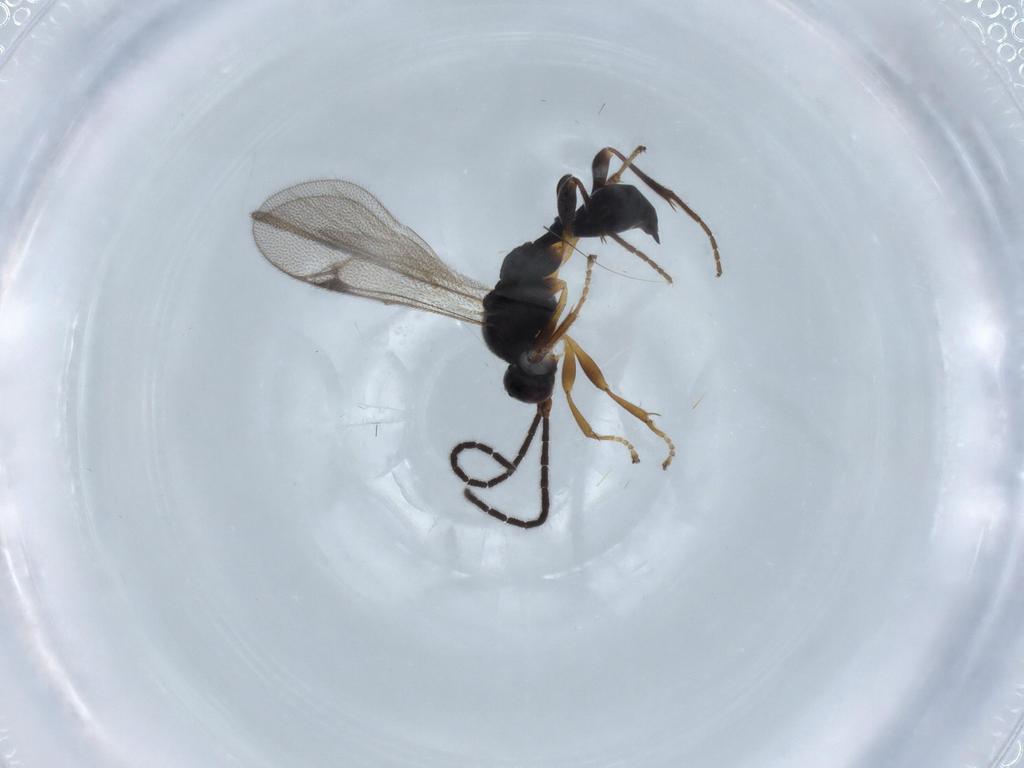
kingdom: Animalia
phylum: Arthropoda
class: Insecta
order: Hymenoptera
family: Proctotrupidae
